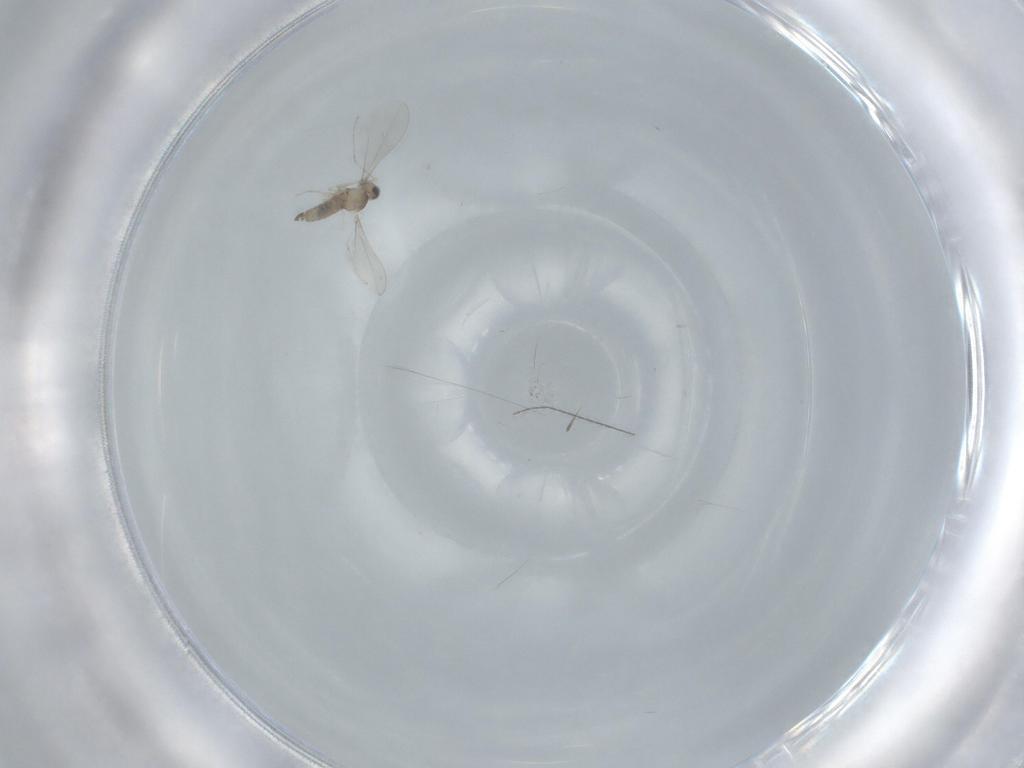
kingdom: Animalia
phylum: Arthropoda
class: Insecta
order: Diptera
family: Cecidomyiidae
